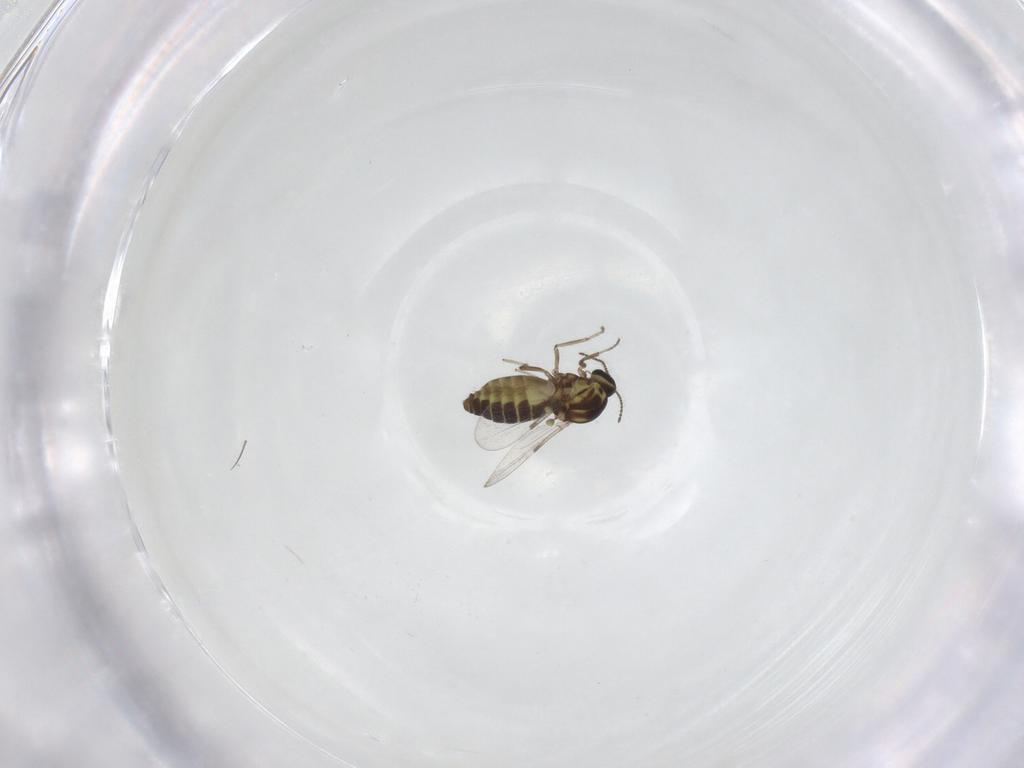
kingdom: Animalia
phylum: Arthropoda
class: Insecta
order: Diptera
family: Ceratopogonidae
